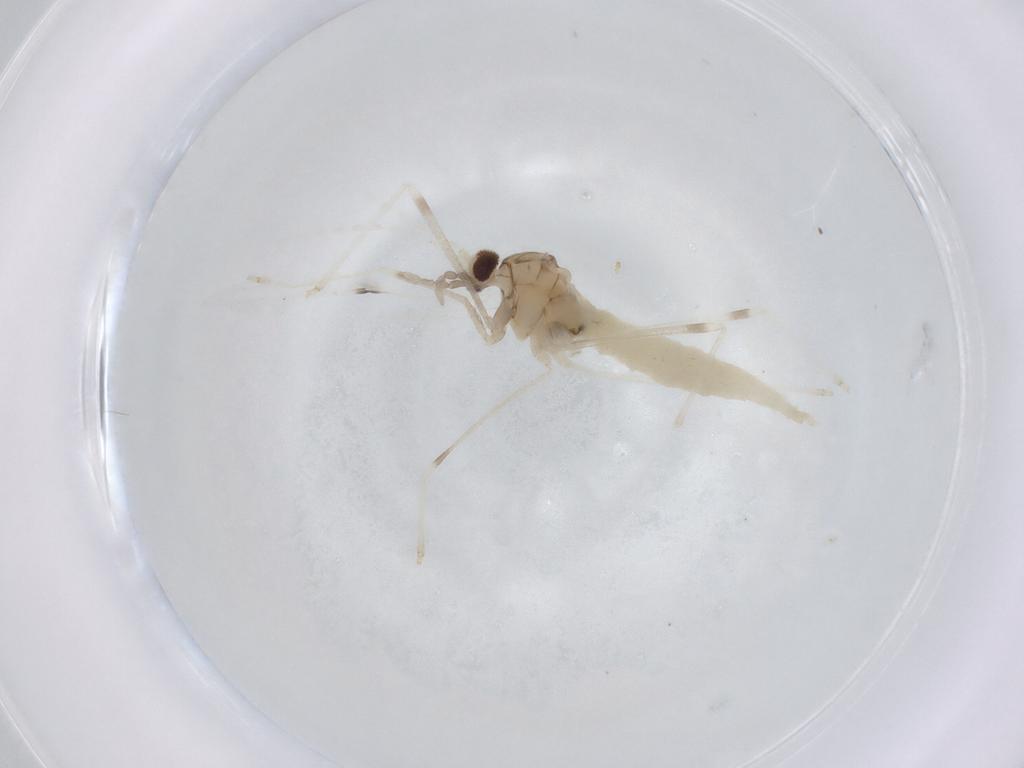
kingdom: Animalia
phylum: Arthropoda
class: Insecta
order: Diptera
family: Cecidomyiidae
